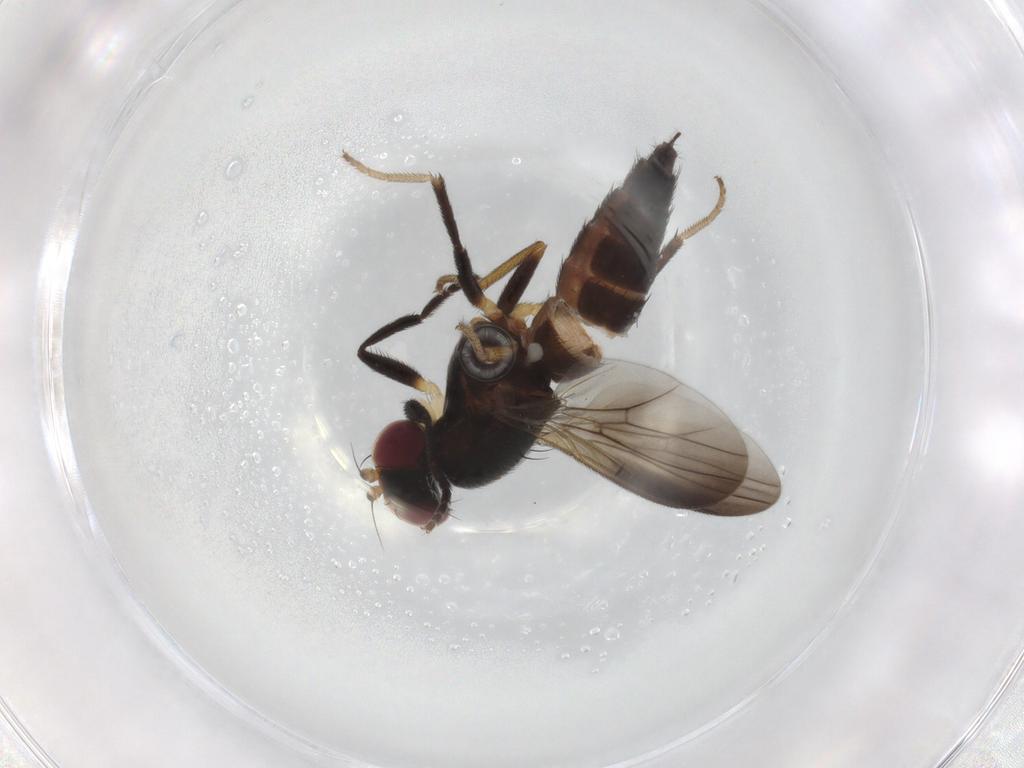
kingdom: Animalia
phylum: Arthropoda
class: Insecta
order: Diptera
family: Clusiidae
